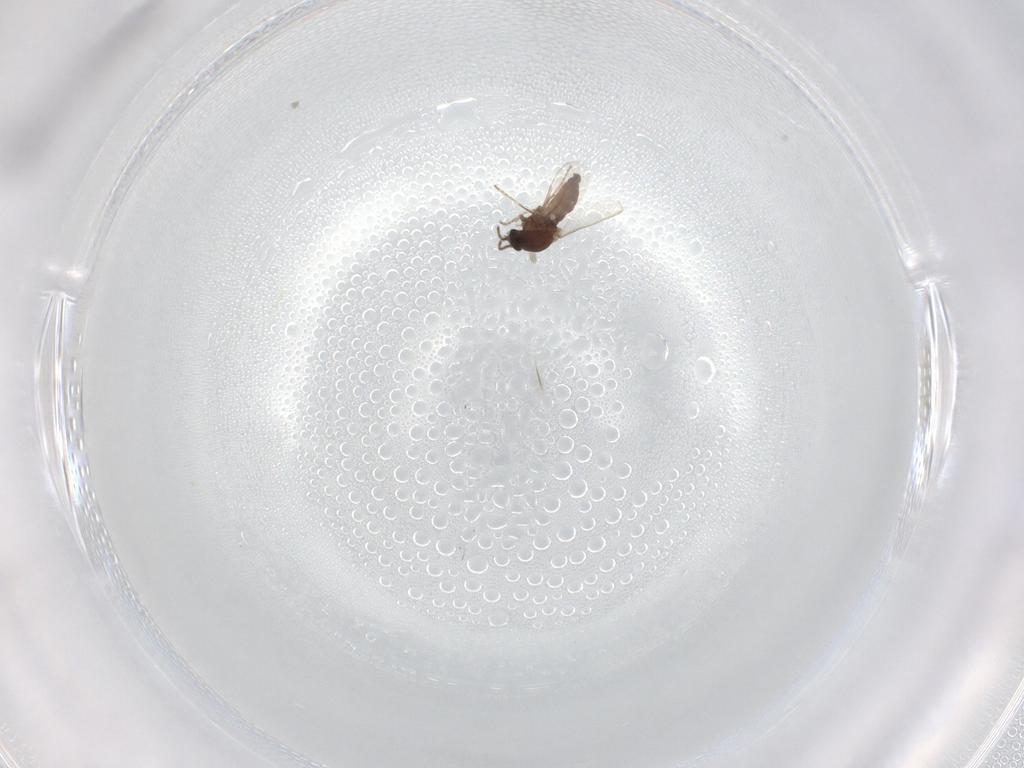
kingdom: Animalia
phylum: Arthropoda
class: Insecta
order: Diptera
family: Ceratopogonidae
